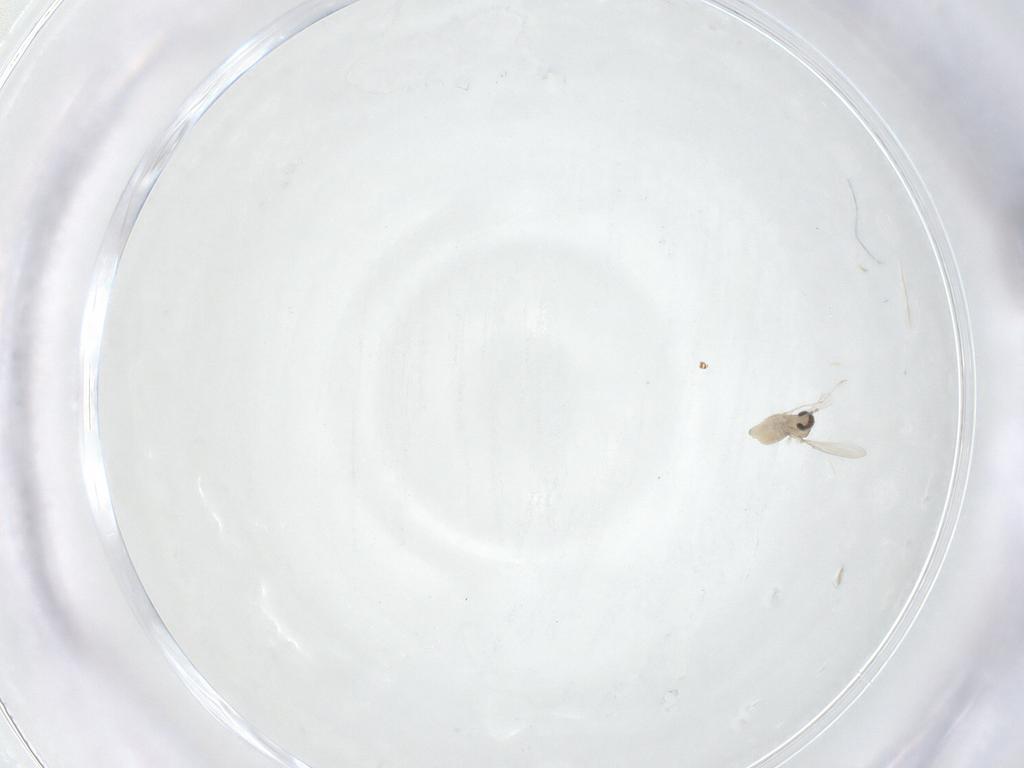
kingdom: Animalia
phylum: Arthropoda
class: Insecta
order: Diptera
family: Cecidomyiidae
